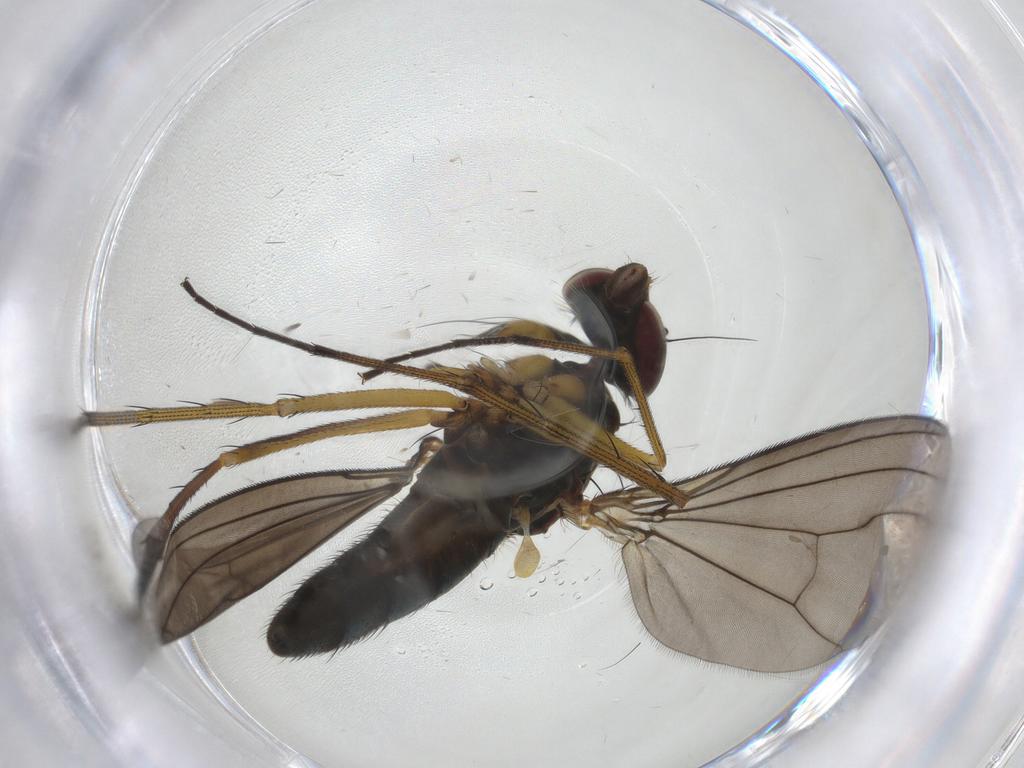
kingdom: Animalia
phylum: Arthropoda
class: Insecta
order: Diptera
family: Dolichopodidae
